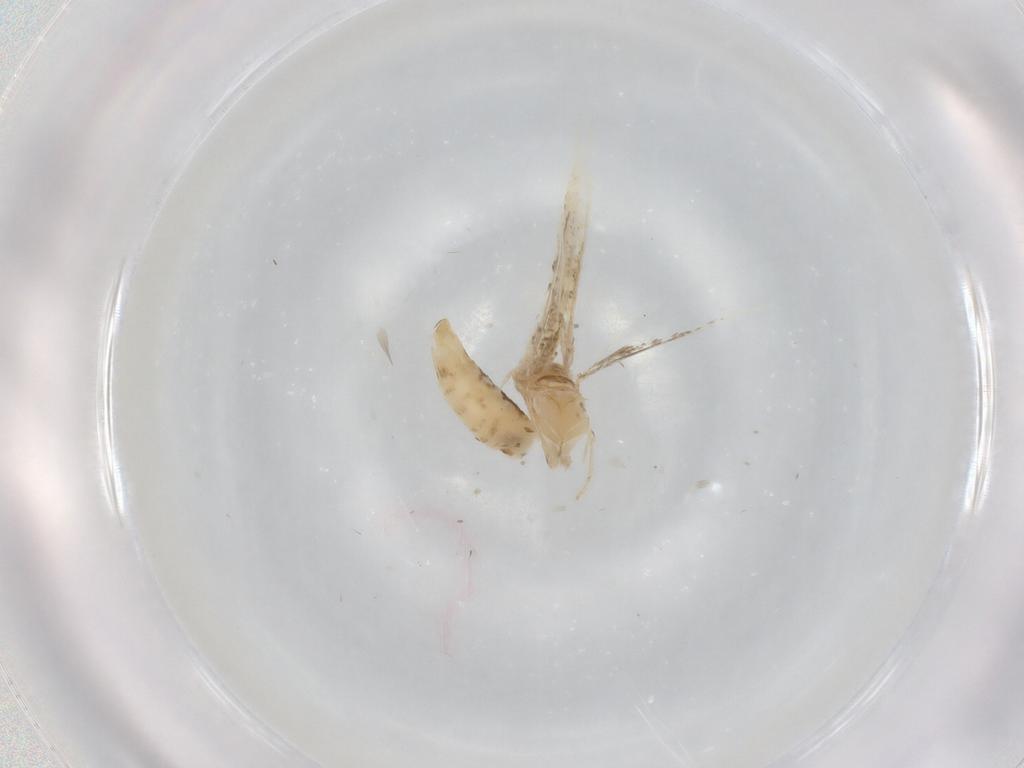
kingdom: Animalia
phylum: Arthropoda
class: Insecta
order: Lepidoptera
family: Gracillariidae
